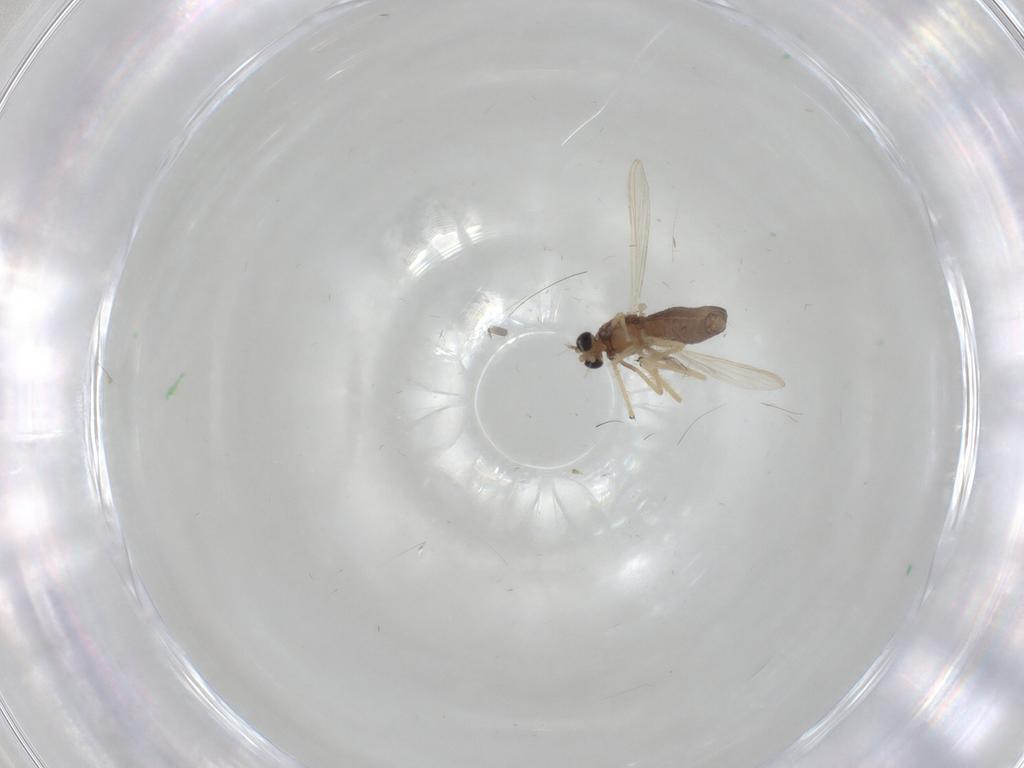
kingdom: Animalia
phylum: Arthropoda
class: Insecta
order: Diptera
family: Chironomidae
